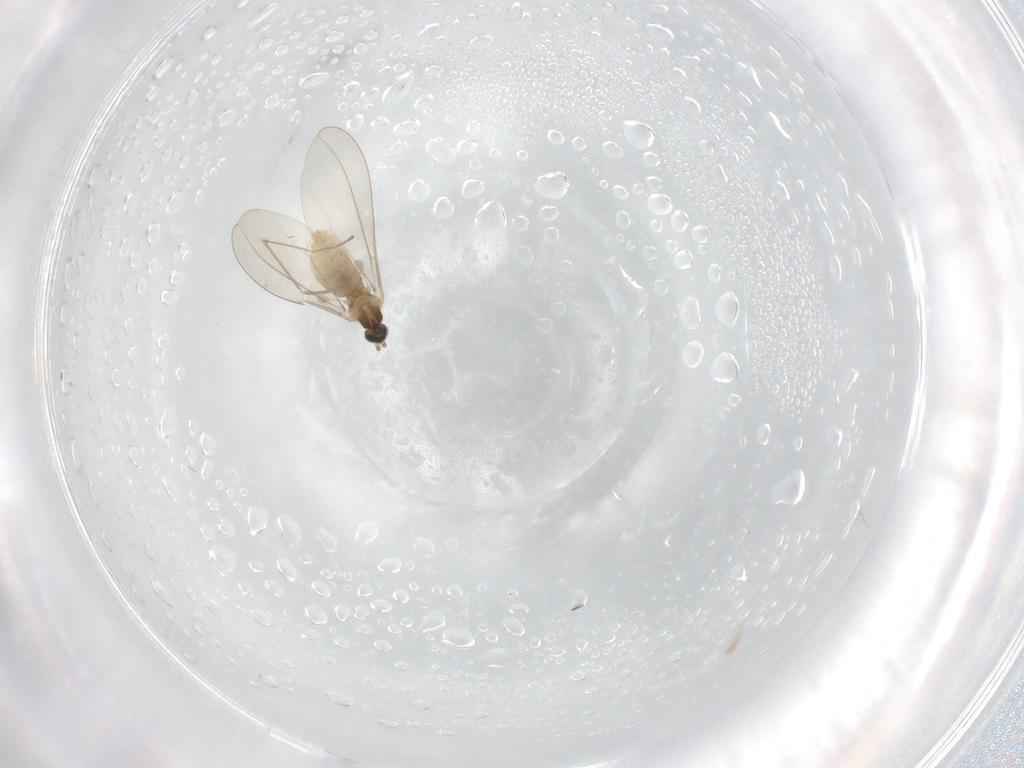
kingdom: Animalia
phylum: Arthropoda
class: Insecta
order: Diptera
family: Cecidomyiidae
